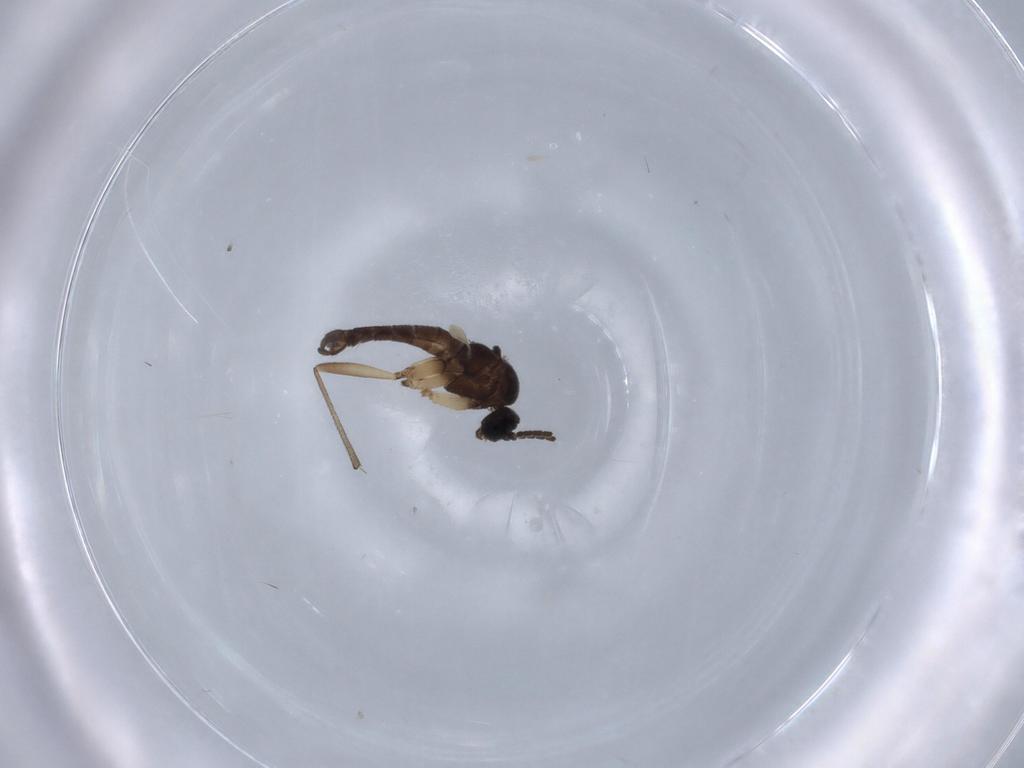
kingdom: Animalia
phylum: Arthropoda
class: Insecta
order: Diptera
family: Sciaridae
